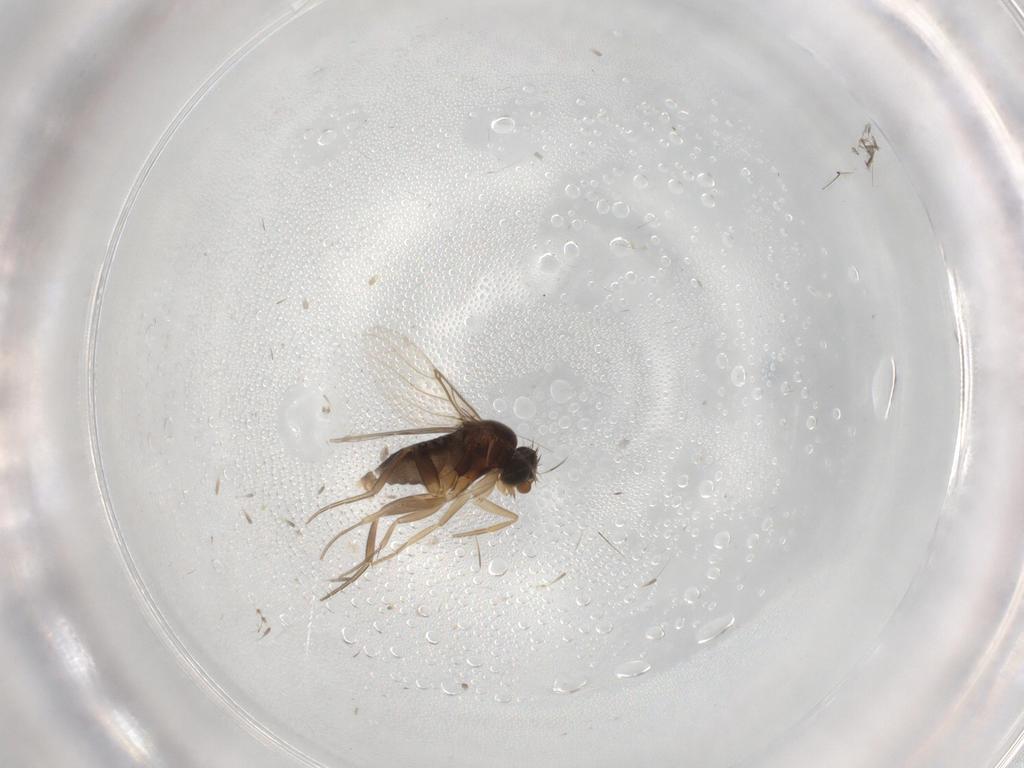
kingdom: Animalia
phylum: Arthropoda
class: Insecta
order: Diptera
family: Phoridae
